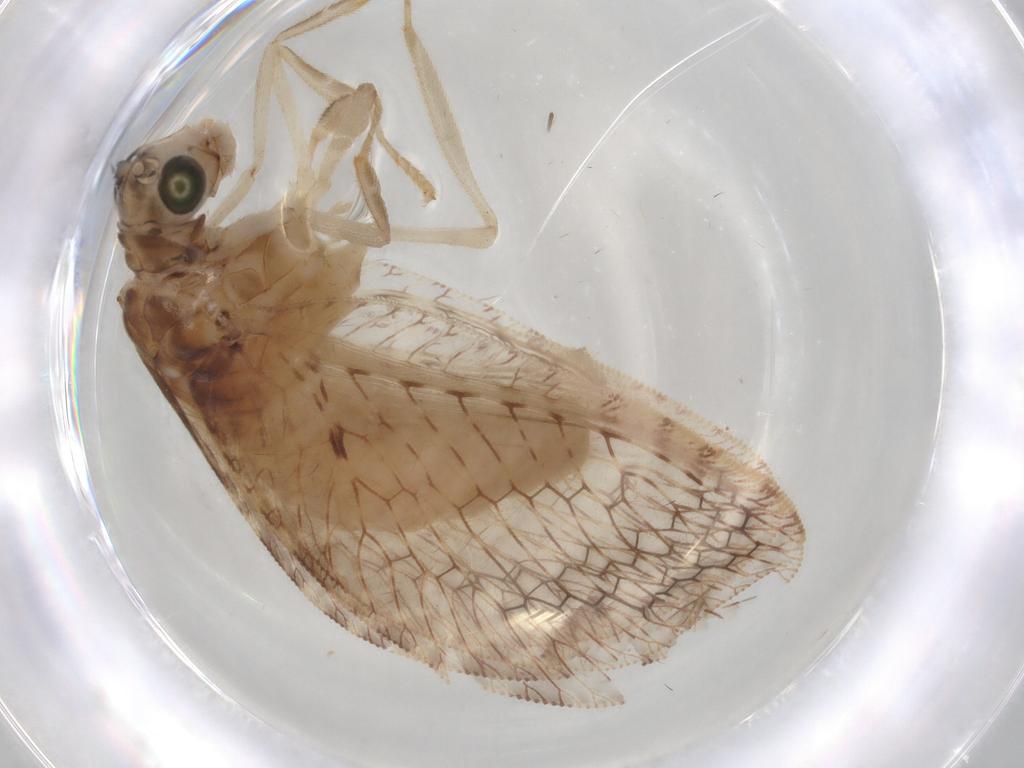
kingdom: Animalia
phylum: Arthropoda
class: Insecta
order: Neuroptera
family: Hemerobiidae
